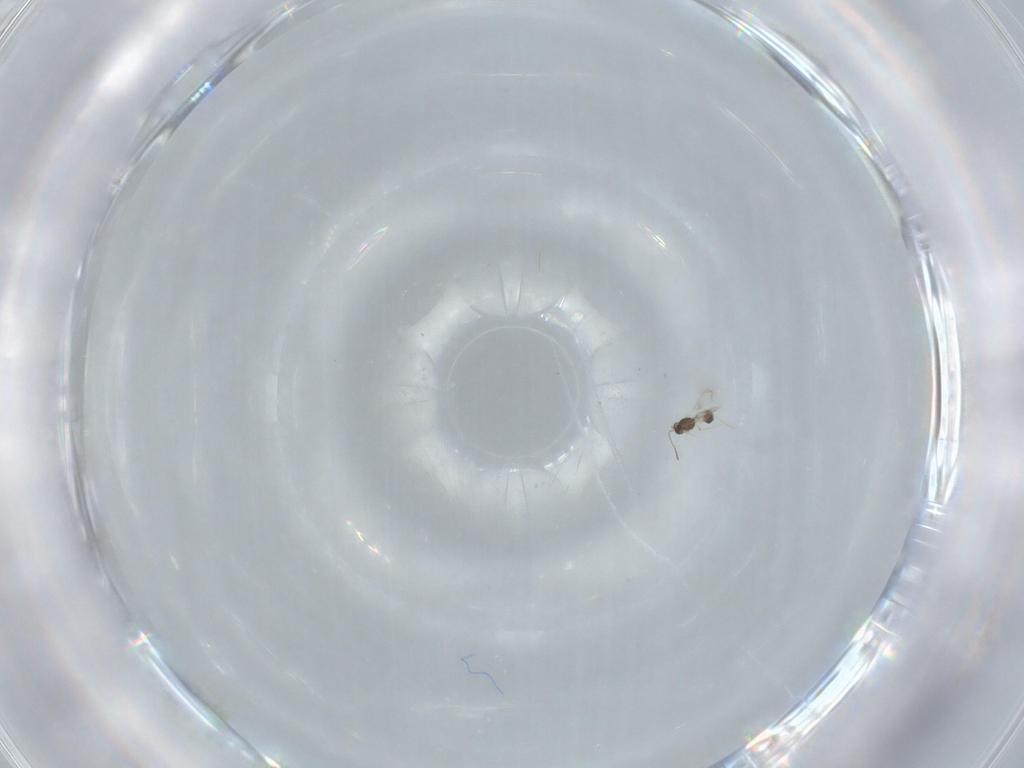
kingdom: Animalia
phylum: Arthropoda
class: Insecta
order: Hymenoptera
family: Mymarommatidae
